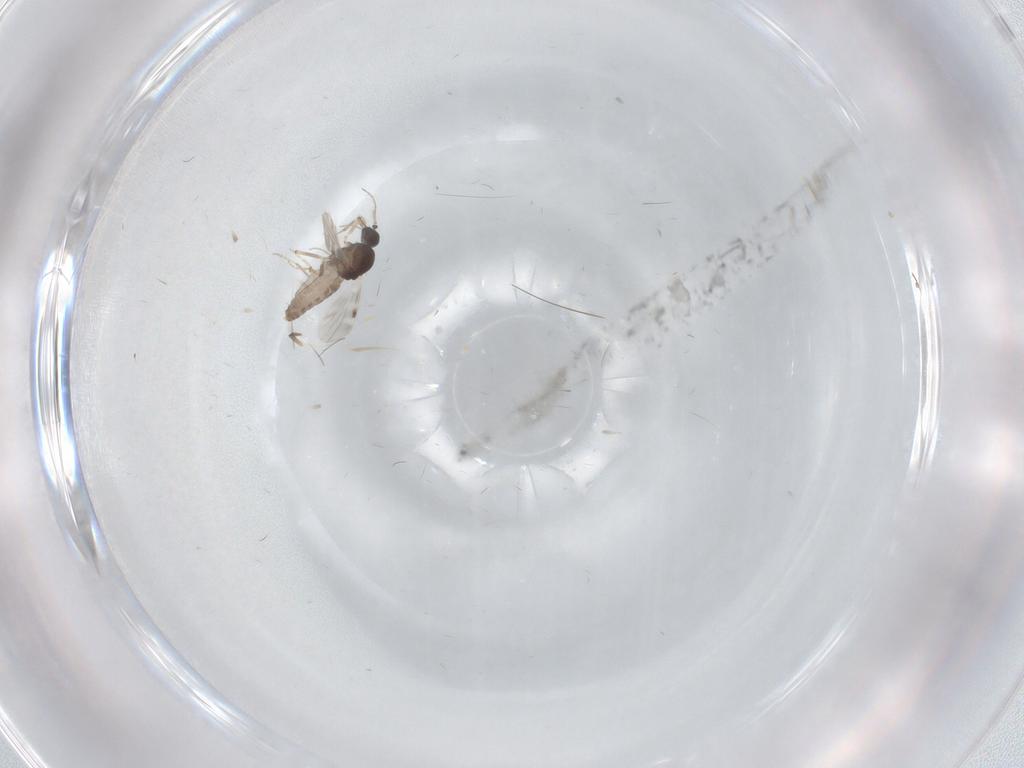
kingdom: Animalia
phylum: Arthropoda
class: Insecta
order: Diptera
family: Cecidomyiidae
